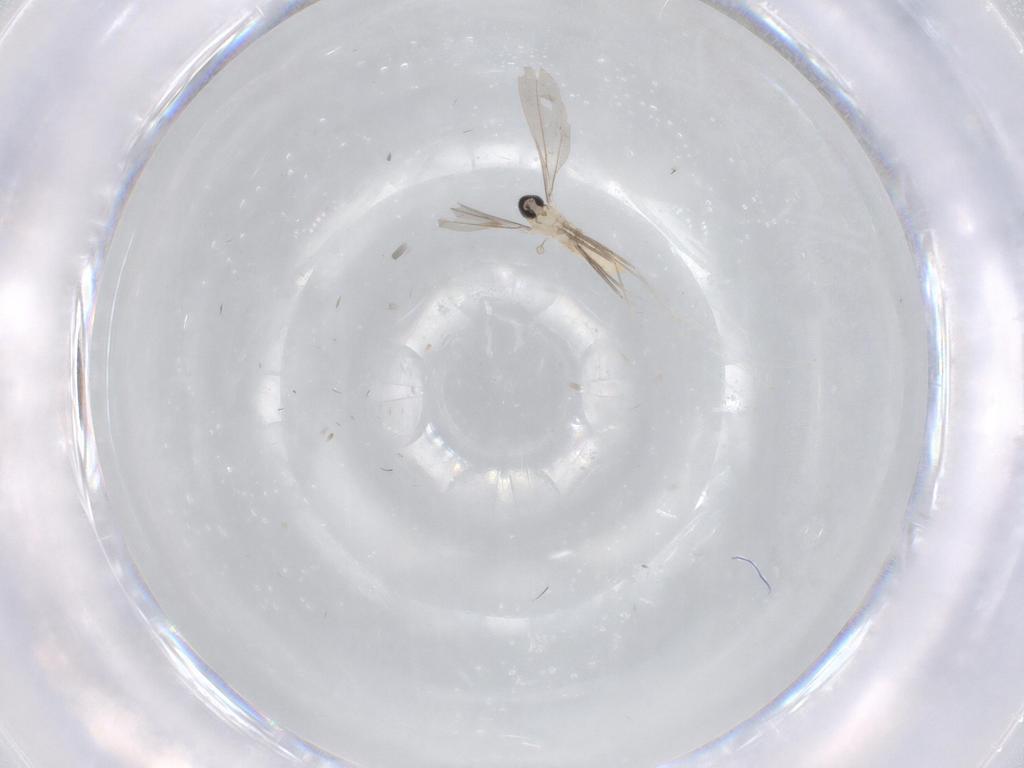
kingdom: Animalia
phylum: Arthropoda
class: Insecta
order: Diptera
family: Cecidomyiidae
